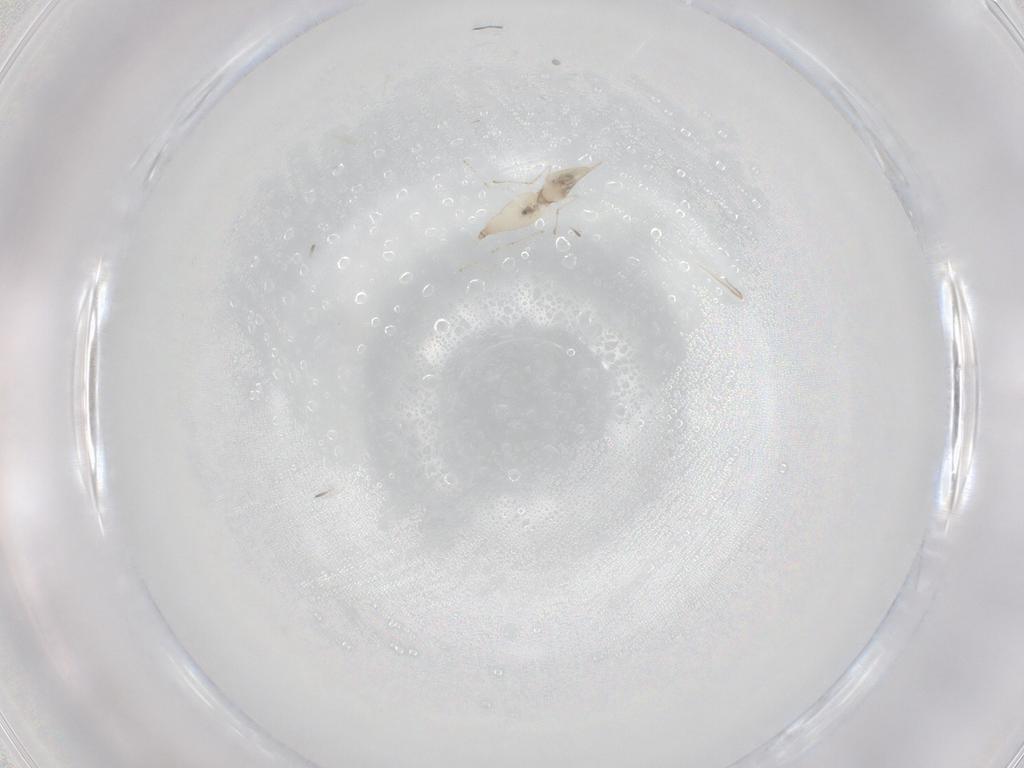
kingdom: Animalia
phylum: Arthropoda
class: Insecta
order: Diptera
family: Cecidomyiidae
